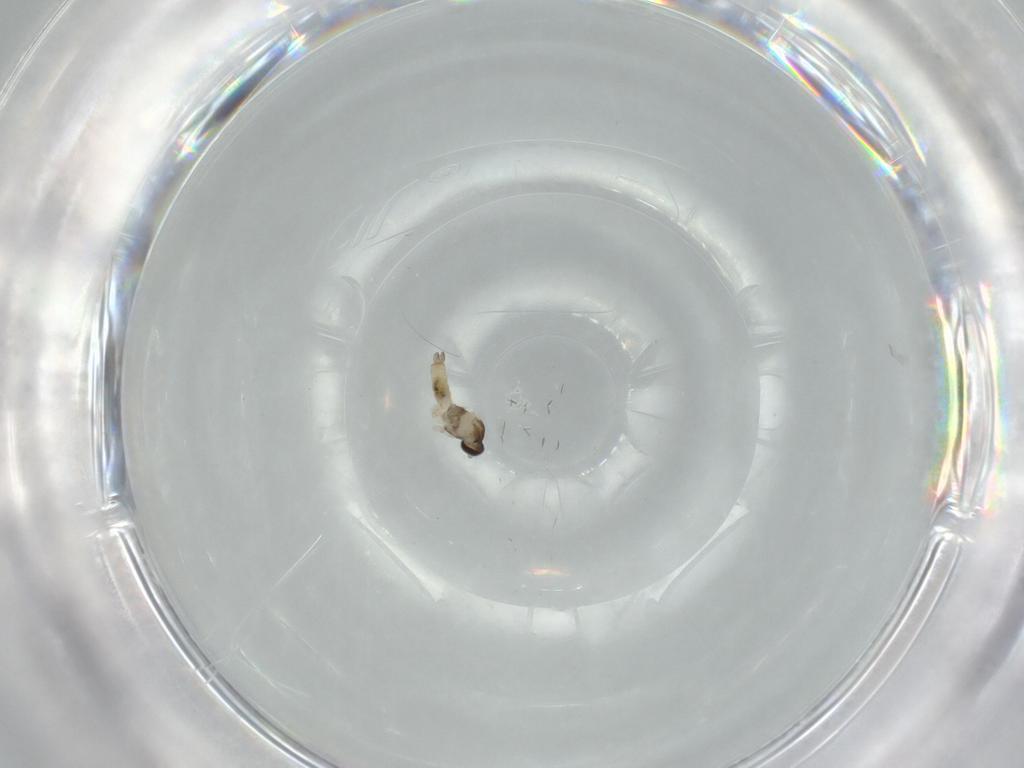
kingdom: Animalia
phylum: Arthropoda
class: Insecta
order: Diptera
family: Cecidomyiidae
